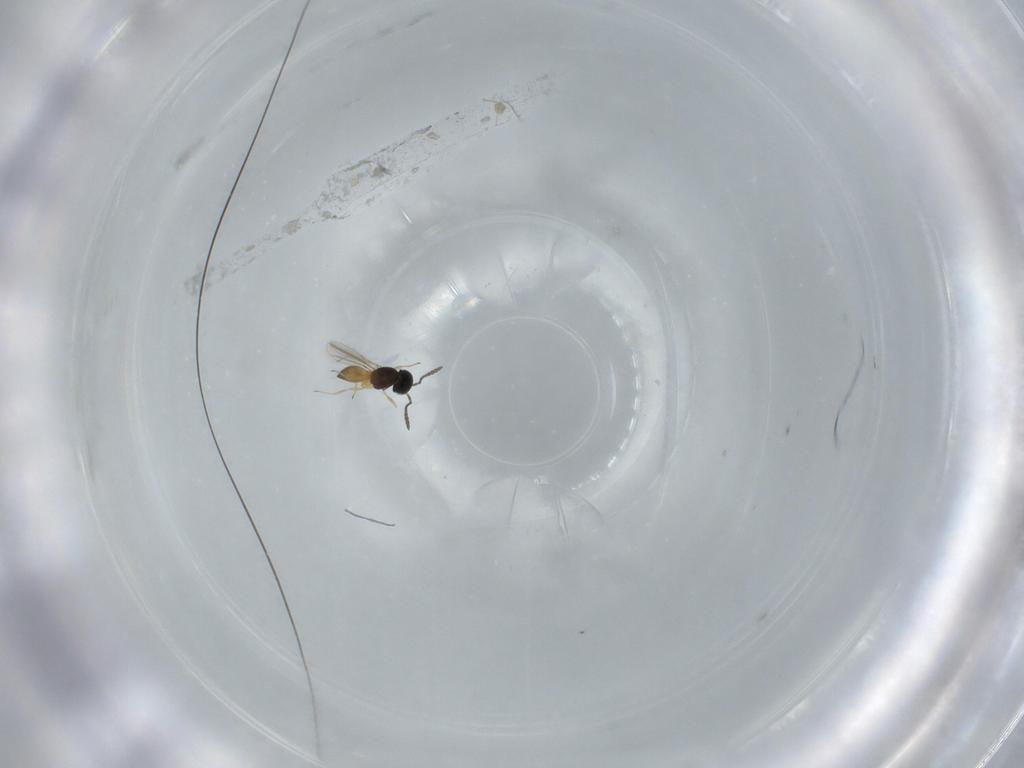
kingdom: Animalia
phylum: Arthropoda
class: Insecta
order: Hymenoptera
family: Scelionidae
